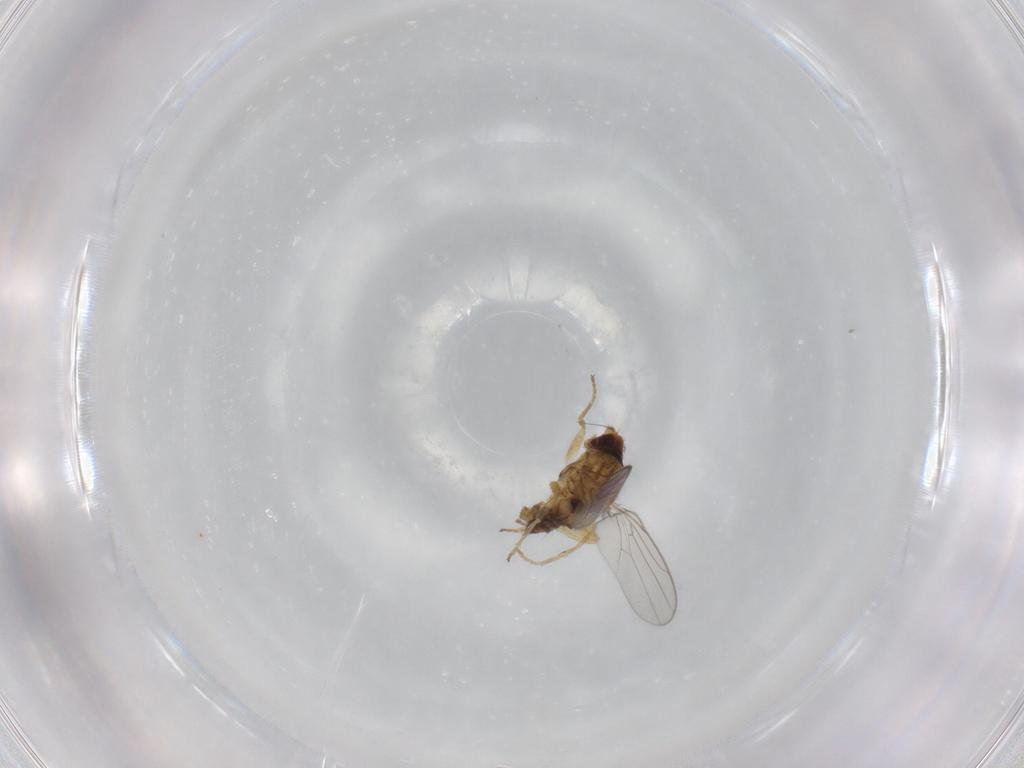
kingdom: Animalia
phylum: Arthropoda
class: Insecta
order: Diptera
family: Chloropidae
